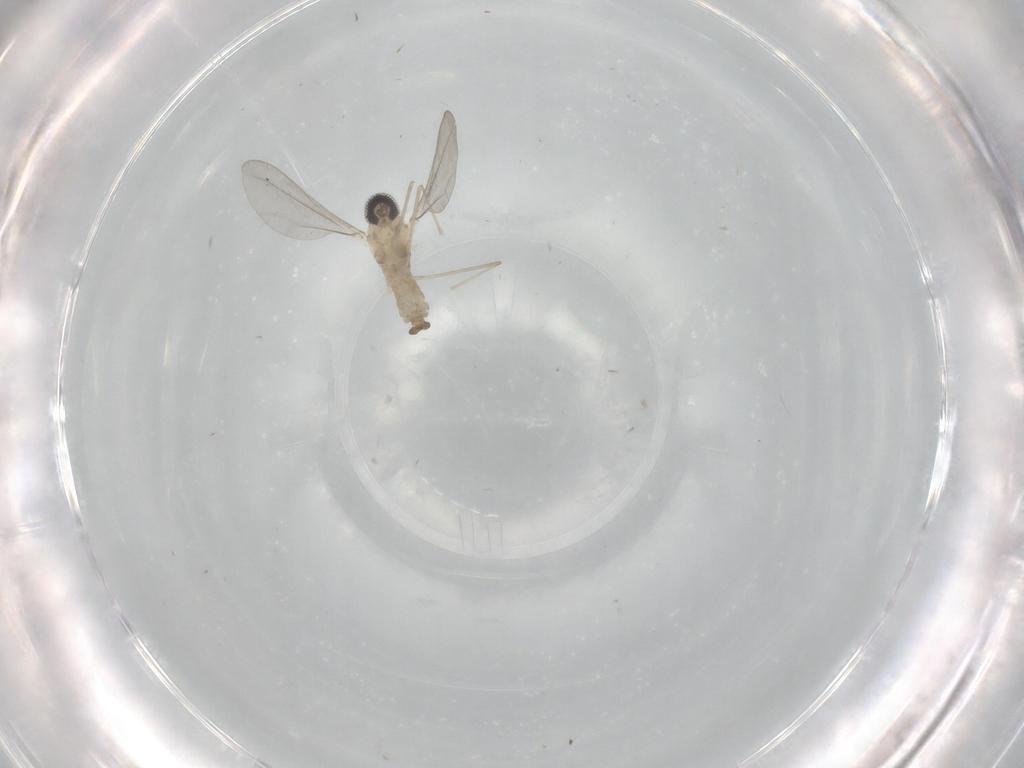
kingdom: Animalia
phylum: Arthropoda
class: Insecta
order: Diptera
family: Cecidomyiidae
